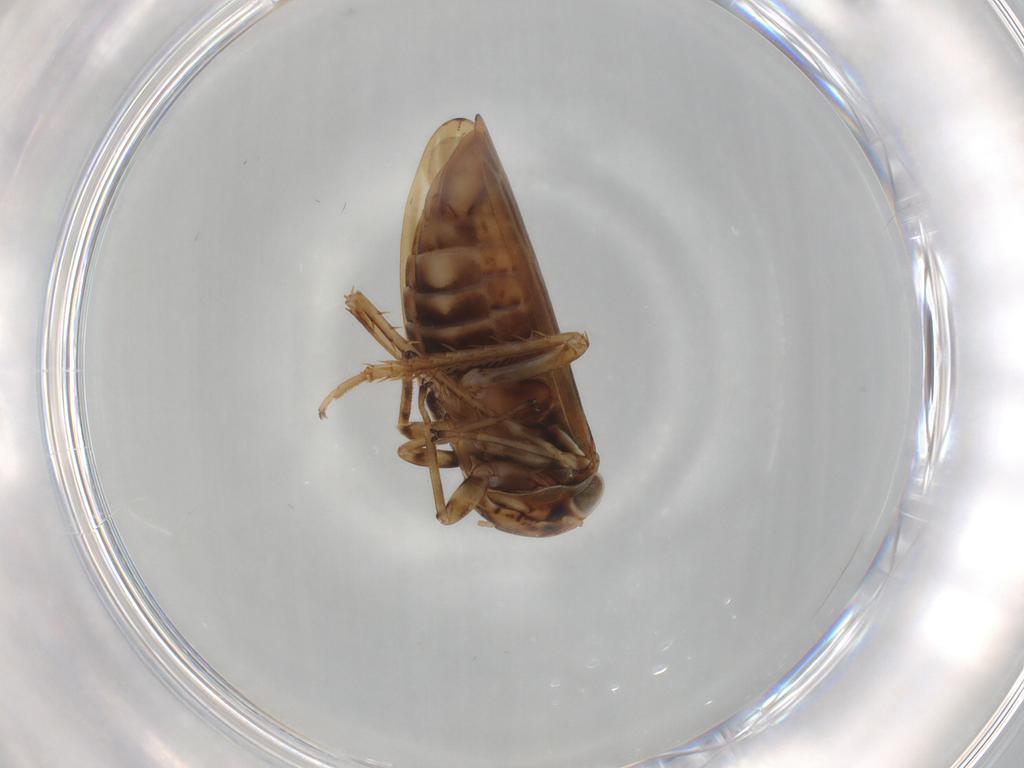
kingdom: Animalia
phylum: Arthropoda
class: Insecta
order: Hemiptera
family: Cicadellidae
